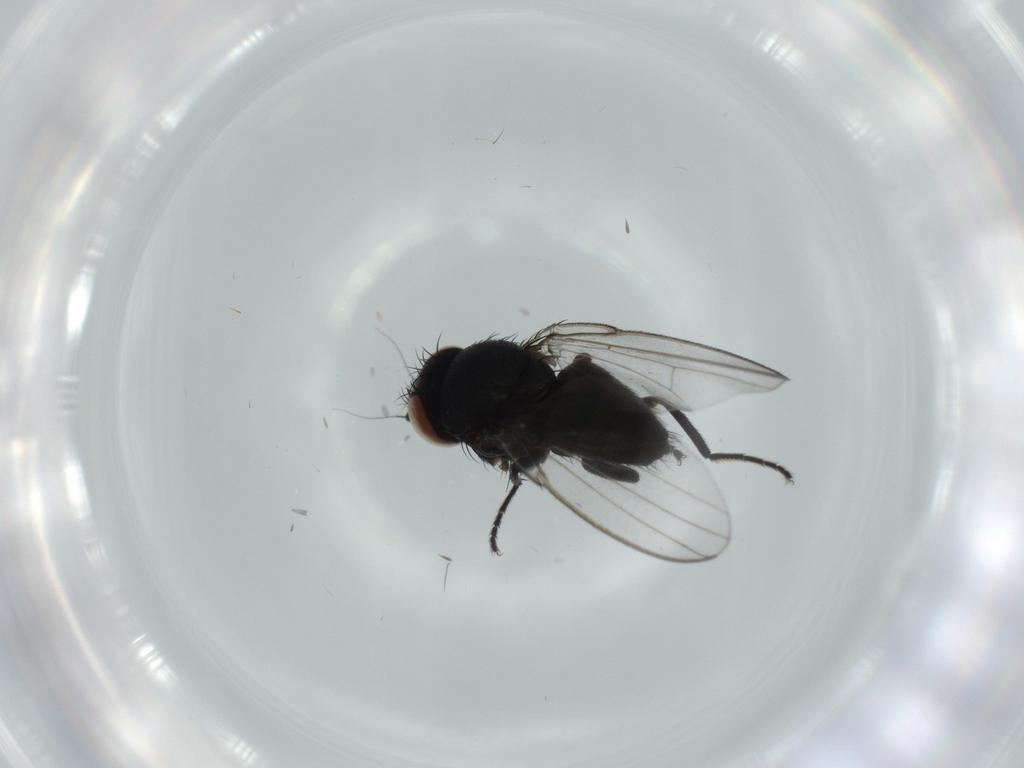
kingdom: Animalia
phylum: Arthropoda
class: Insecta
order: Diptera
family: Milichiidae
